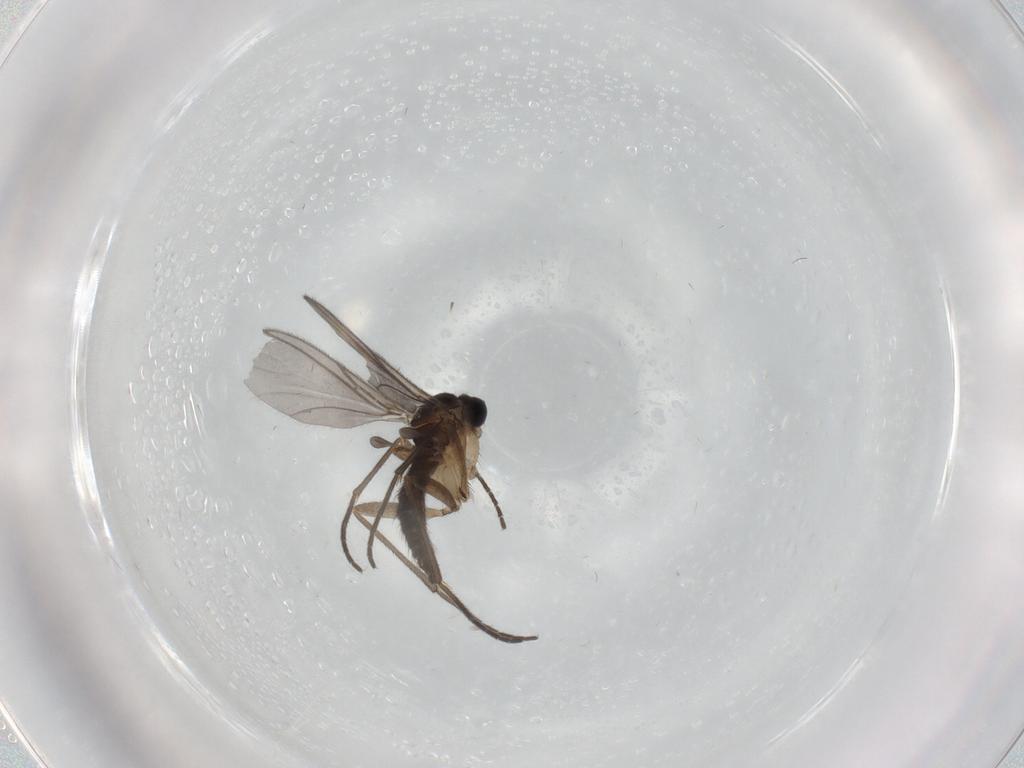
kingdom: Animalia
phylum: Arthropoda
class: Insecta
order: Diptera
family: Sciaridae
